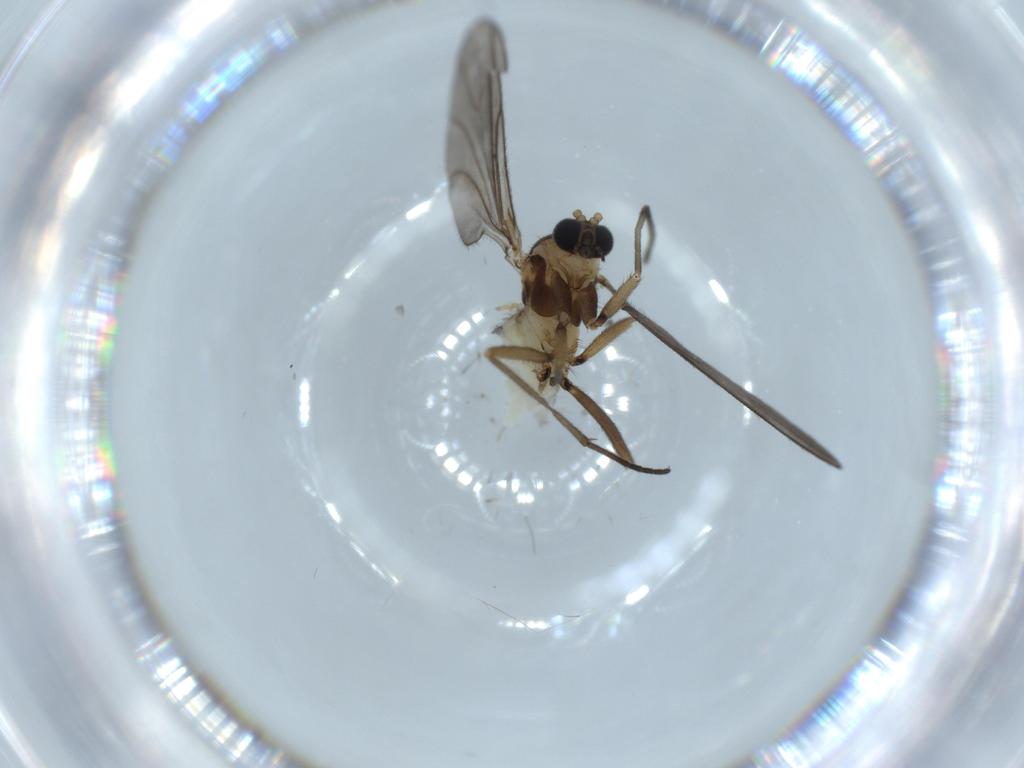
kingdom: Animalia
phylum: Arthropoda
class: Insecta
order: Diptera
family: Sciaridae
